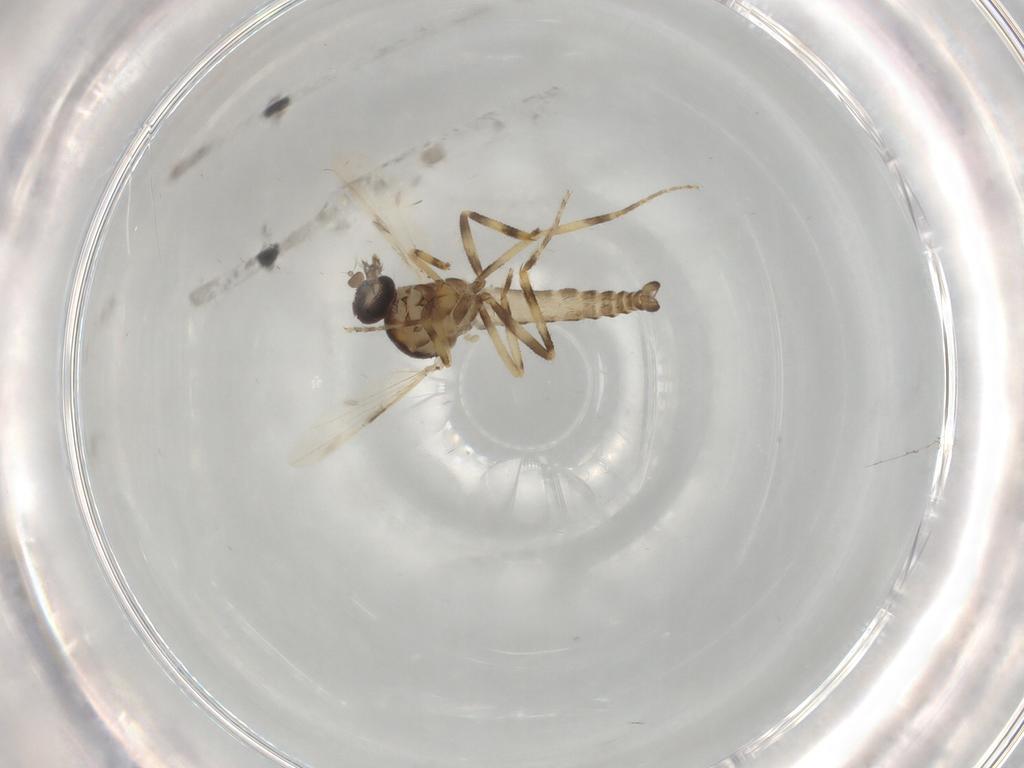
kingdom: Animalia
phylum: Arthropoda
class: Insecta
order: Diptera
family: Ceratopogonidae
